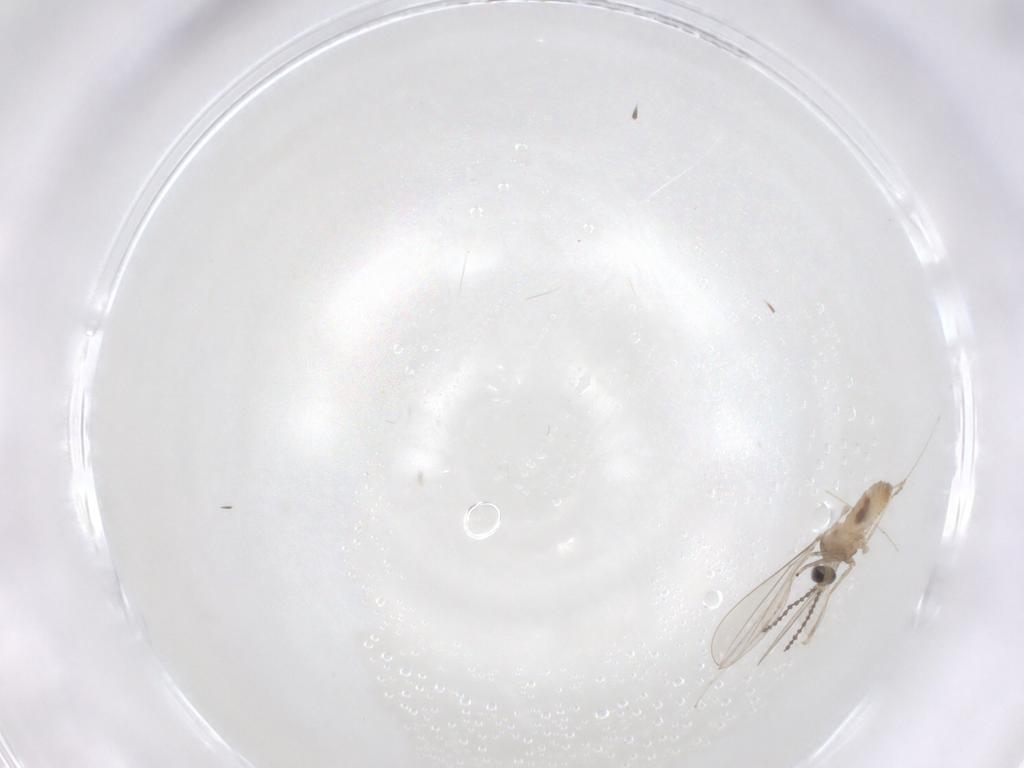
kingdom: Animalia
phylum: Arthropoda
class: Insecta
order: Diptera
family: Ceratopogonidae
